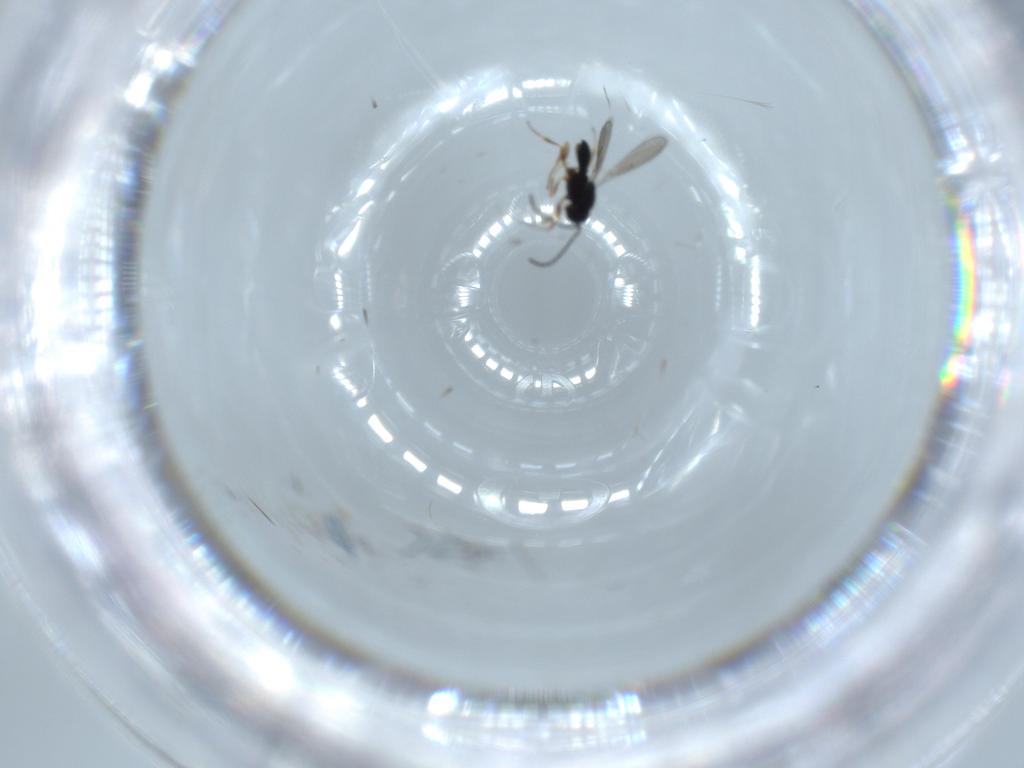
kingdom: Animalia
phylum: Arthropoda
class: Insecta
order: Hymenoptera
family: Scelionidae
